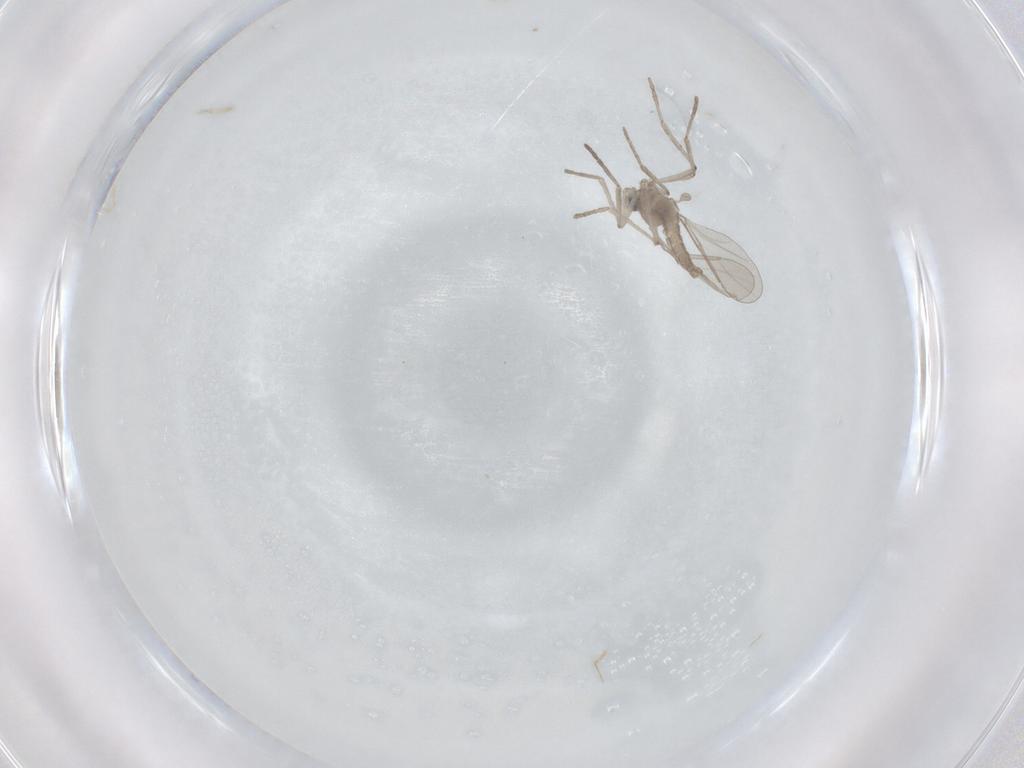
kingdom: Animalia
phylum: Arthropoda
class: Insecta
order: Diptera
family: Cecidomyiidae
